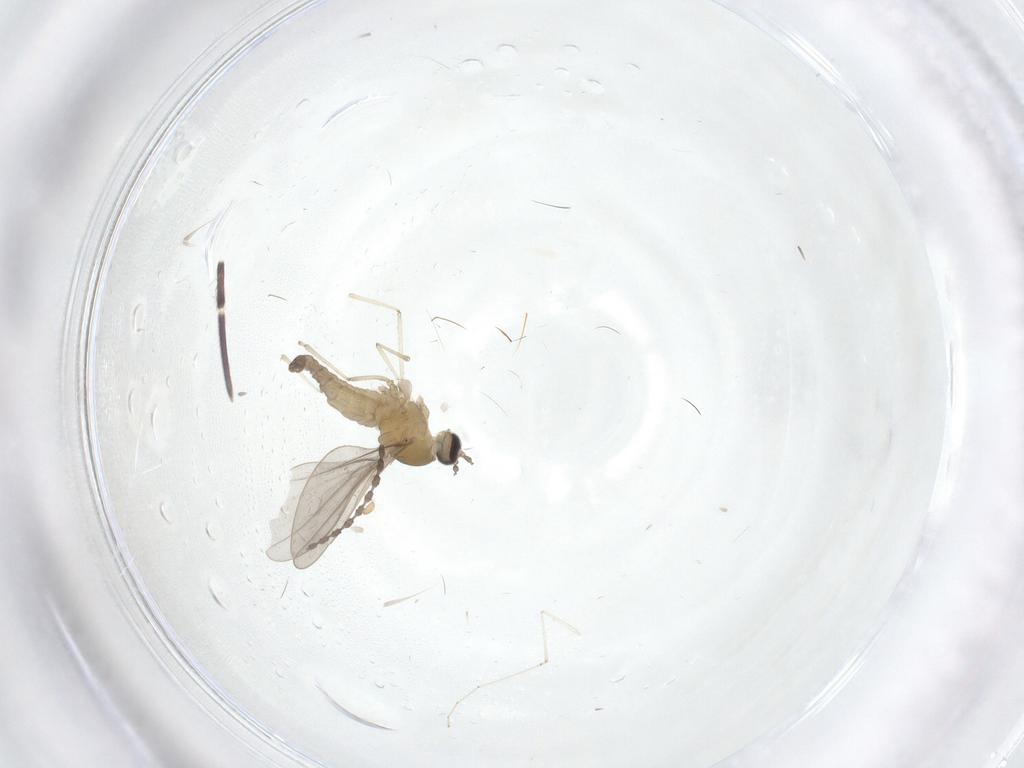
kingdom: Animalia
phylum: Arthropoda
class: Insecta
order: Diptera
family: Cecidomyiidae
